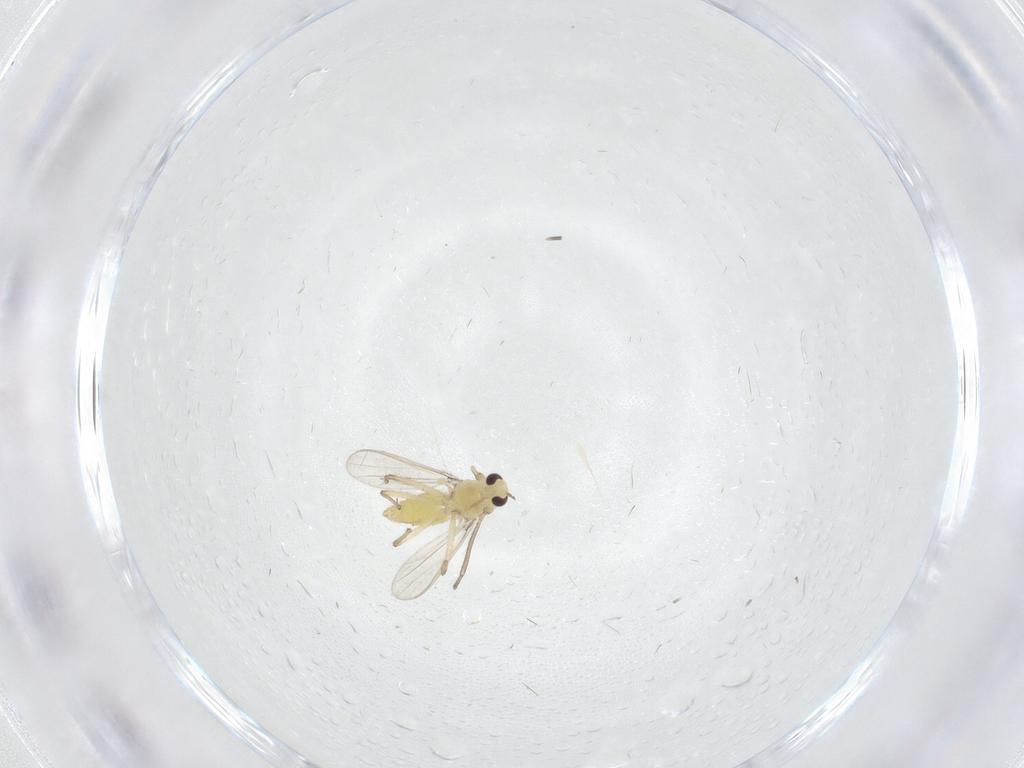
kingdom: Animalia
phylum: Arthropoda
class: Insecta
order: Diptera
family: Chironomidae
